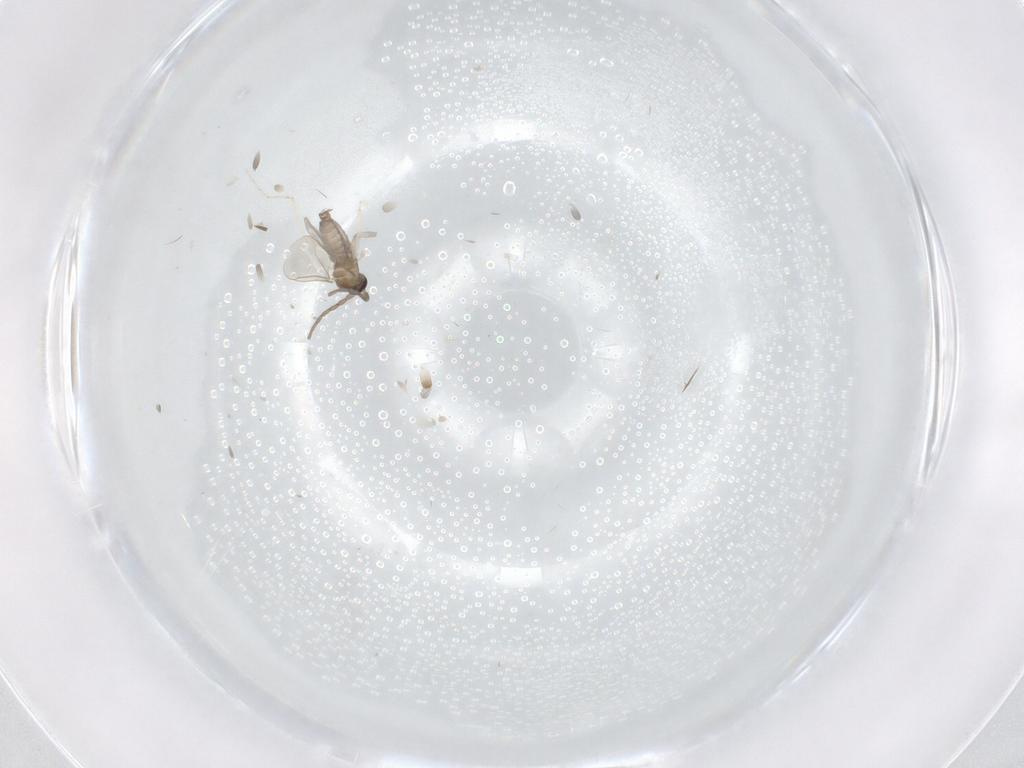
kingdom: Animalia
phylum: Arthropoda
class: Insecta
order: Diptera
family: Cecidomyiidae
